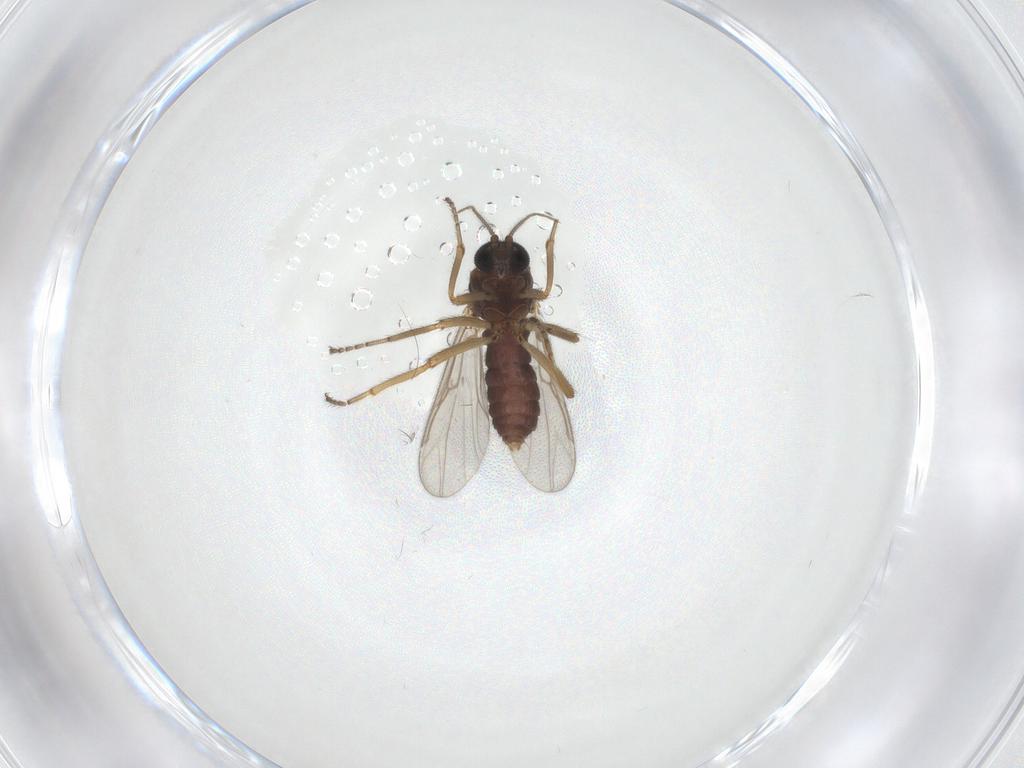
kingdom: Animalia
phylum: Arthropoda
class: Insecta
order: Diptera
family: Ceratopogonidae
